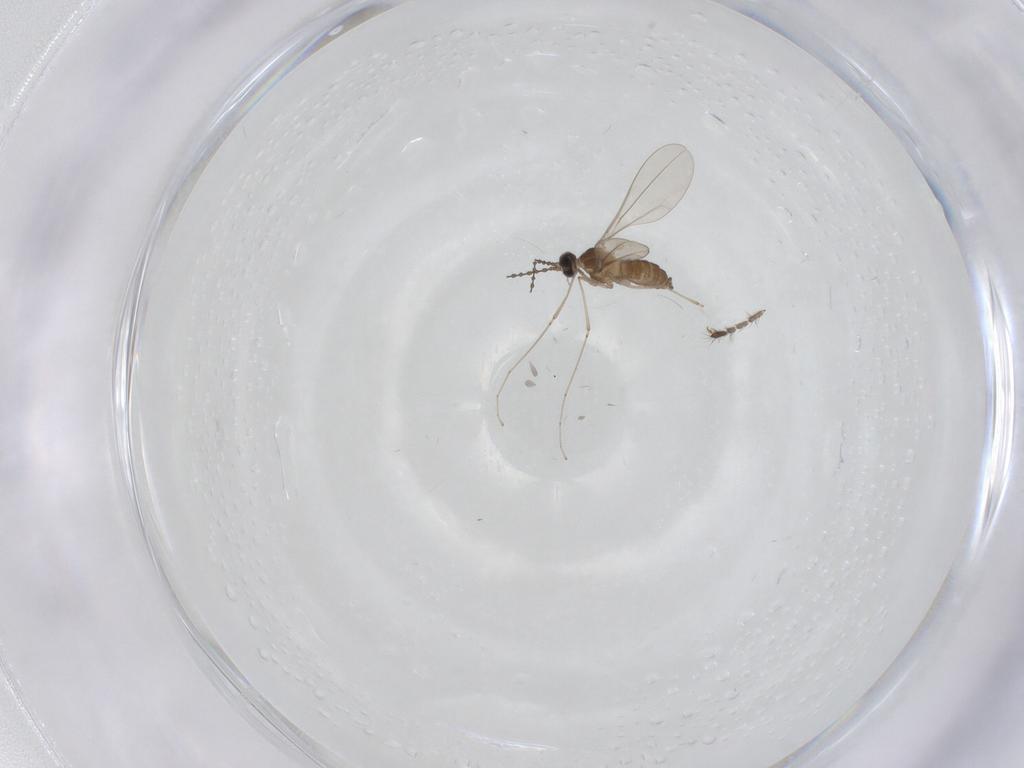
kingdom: Animalia
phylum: Arthropoda
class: Insecta
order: Diptera
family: Bibionidae
